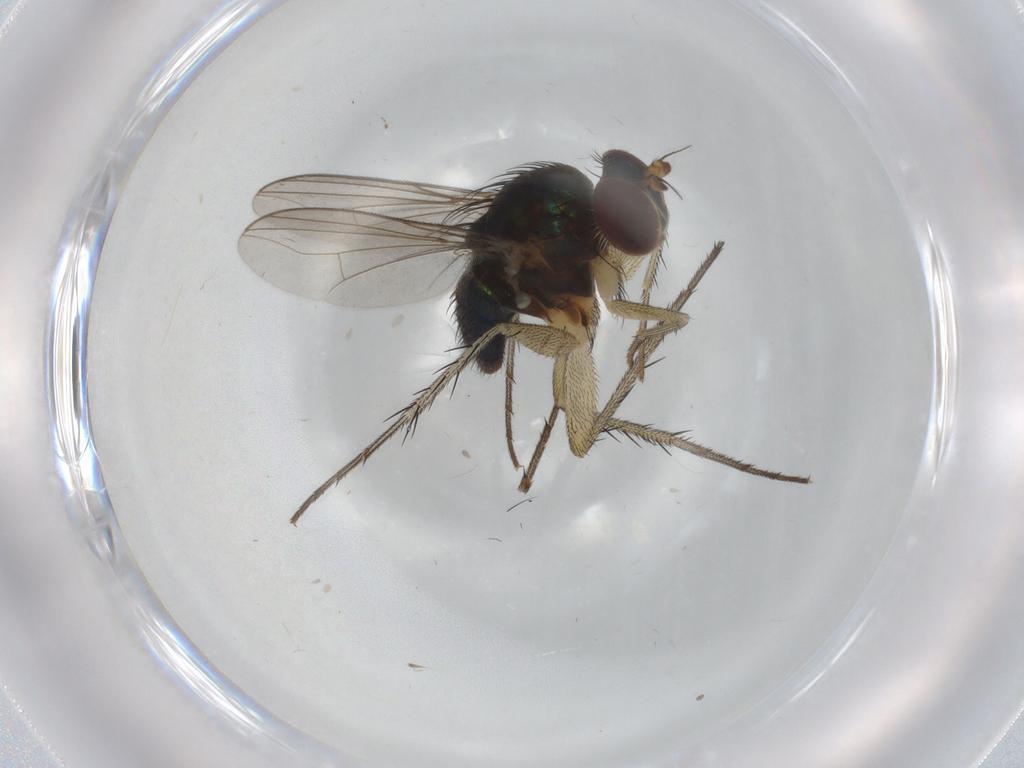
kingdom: Animalia
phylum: Arthropoda
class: Insecta
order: Diptera
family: Dolichopodidae
